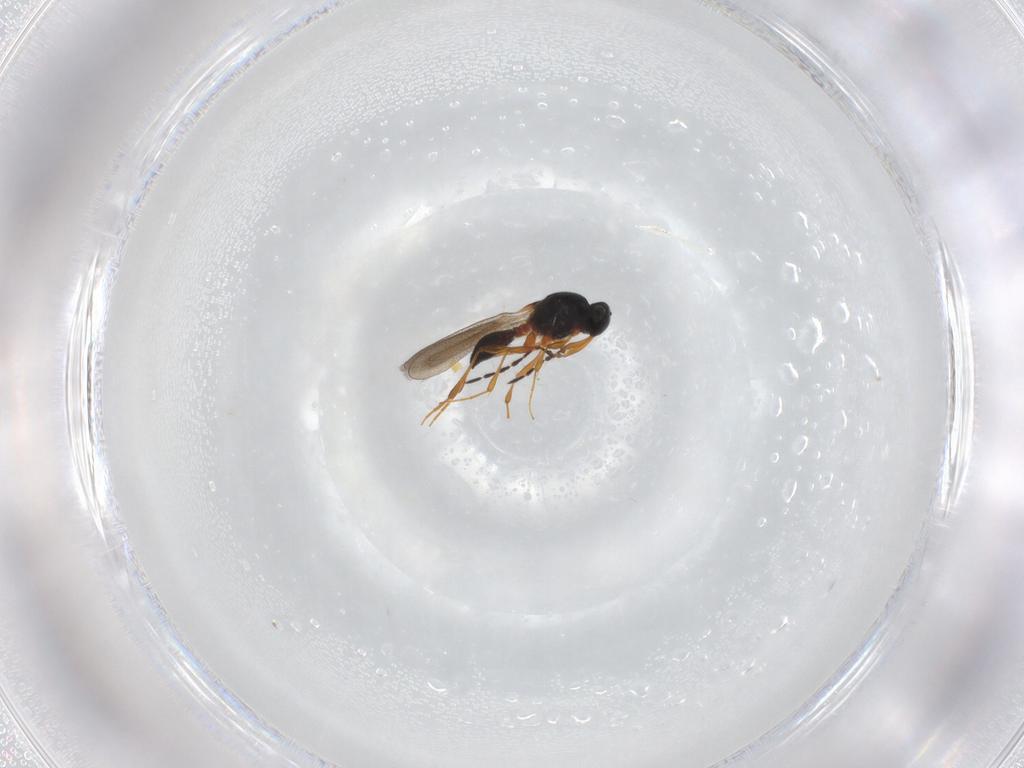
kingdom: Animalia
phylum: Arthropoda
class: Insecta
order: Hymenoptera
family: Platygastridae
